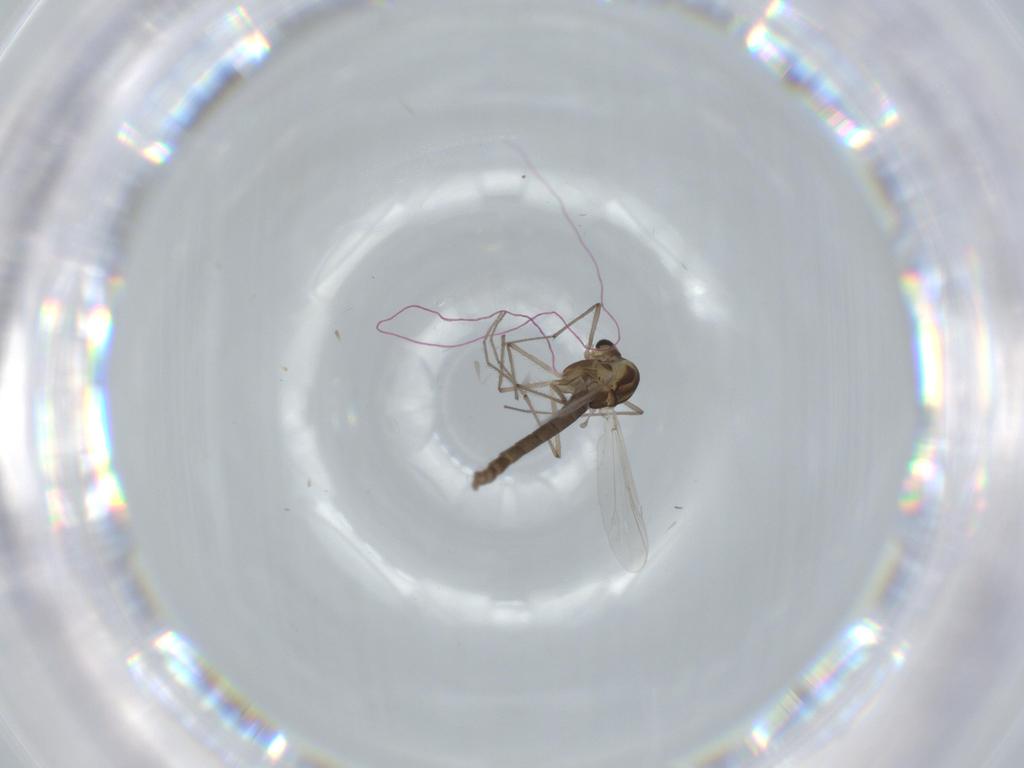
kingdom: Animalia
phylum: Arthropoda
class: Insecta
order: Diptera
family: Chironomidae
